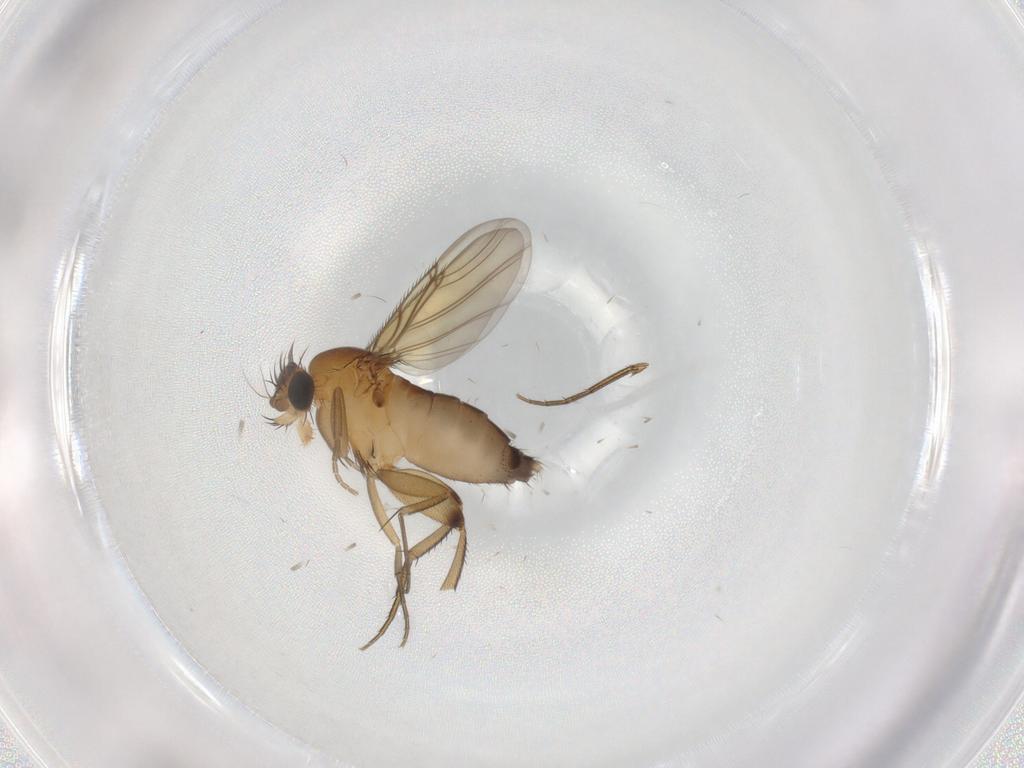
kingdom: Animalia
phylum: Arthropoda
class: Insecta
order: Diptera
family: Phoridae
